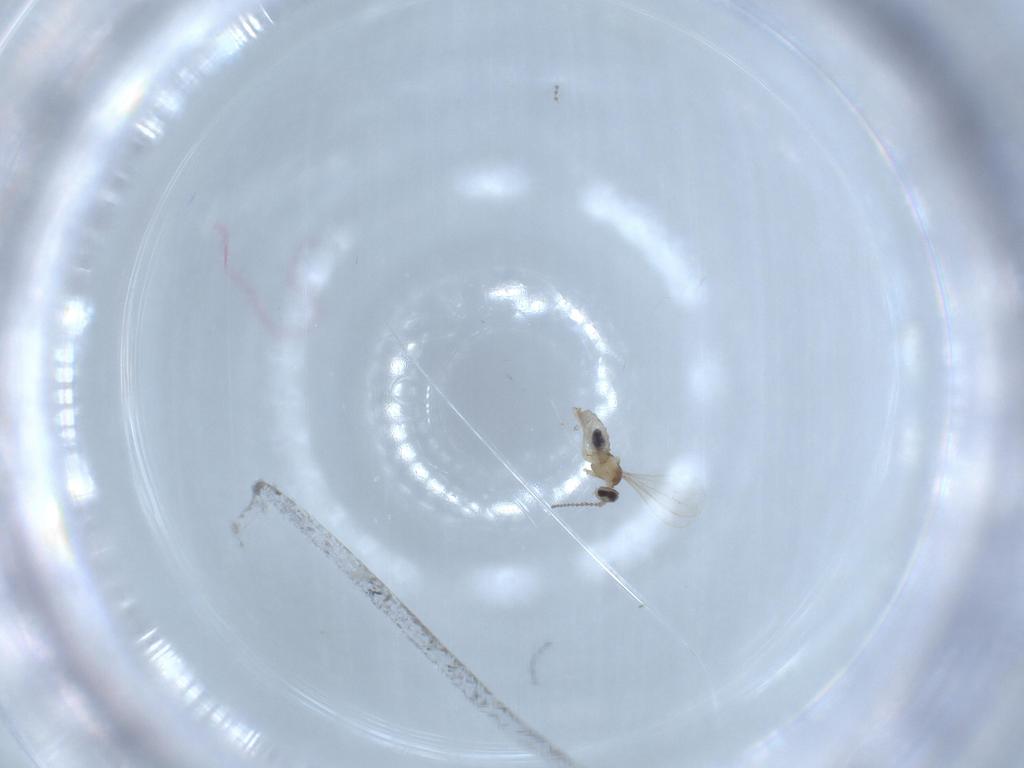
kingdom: Animalia
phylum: Arthropoda
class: Insecta
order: Diptera
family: Cecidomyiidae
